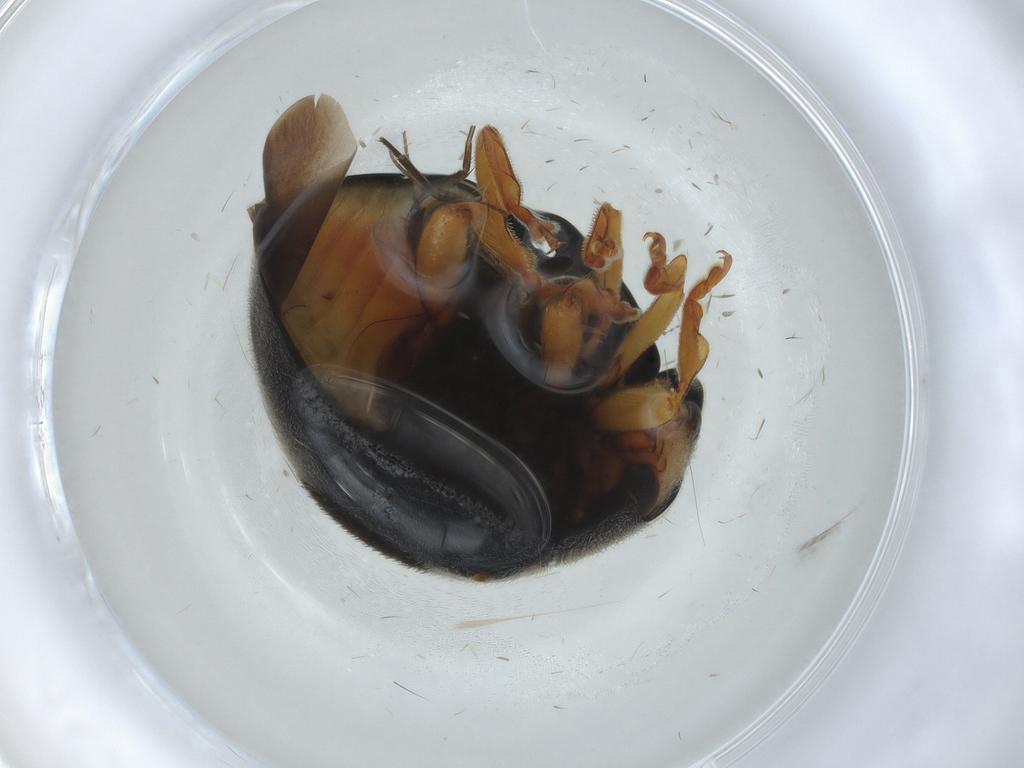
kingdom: Animalia
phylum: Arthropoda
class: Insecta
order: Coleoptera
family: Coccinellidae
